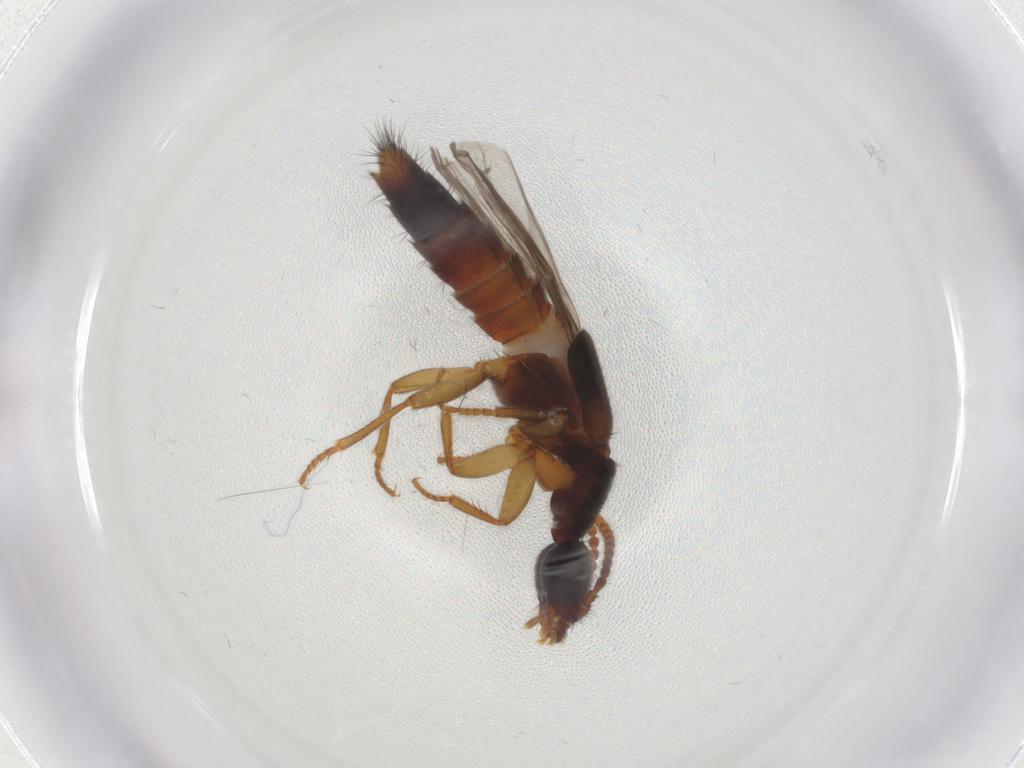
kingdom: Animalia
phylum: Arthropoda
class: Insecta
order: Coleoptera
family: Staphylinidae
